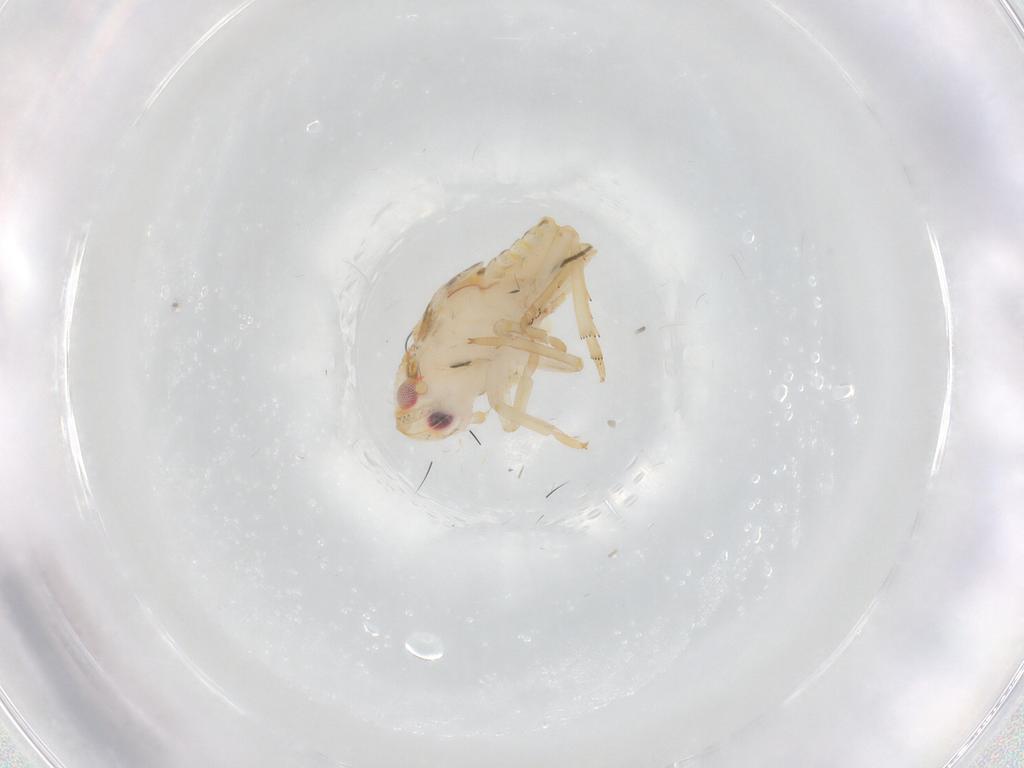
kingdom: Animalia
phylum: Arthropoda
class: Insecta
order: Hemiptera
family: Flatidae
